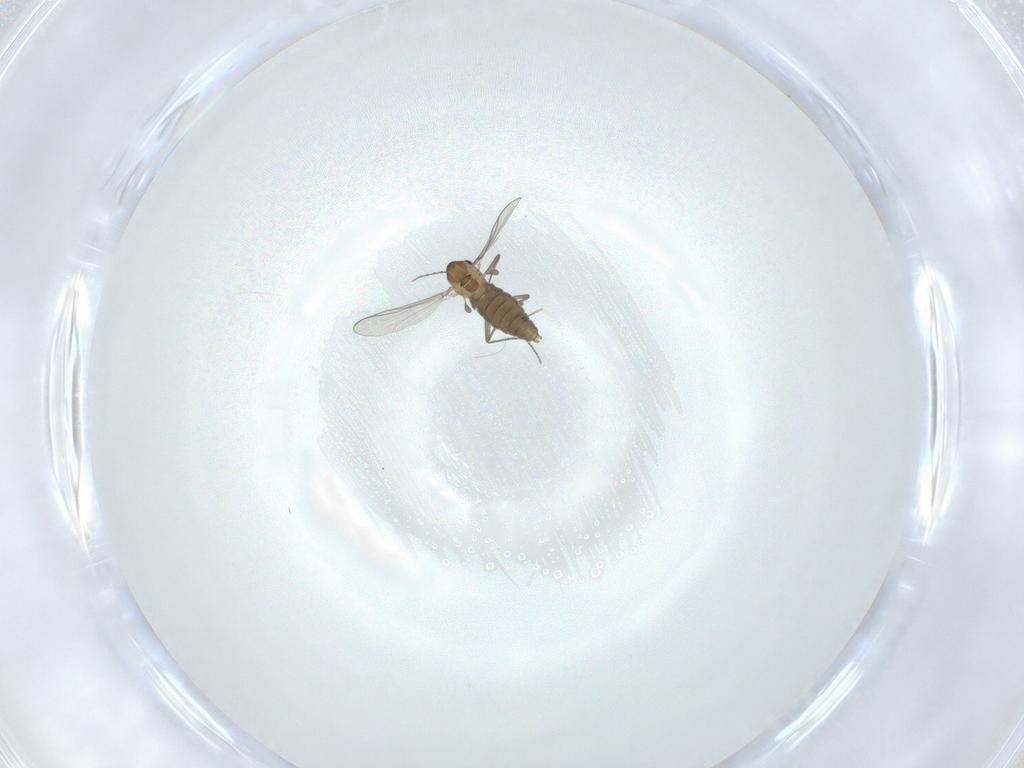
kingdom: Animalia
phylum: Arthropoda
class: Insecta
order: Diptera
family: Chironomidae
